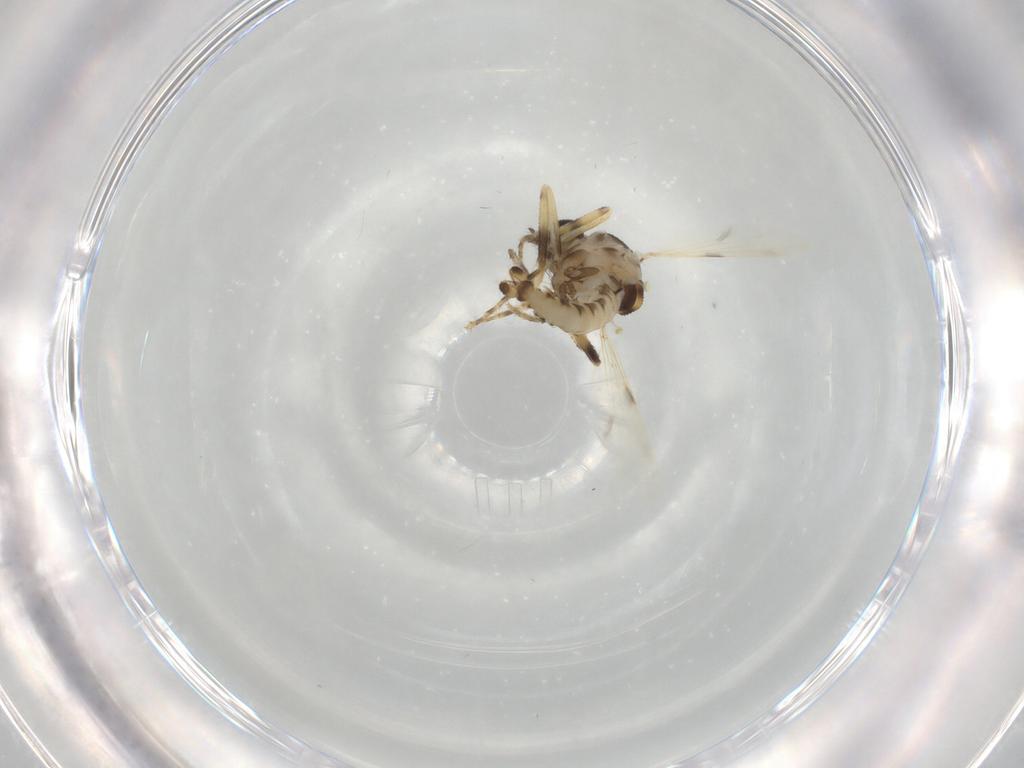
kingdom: Animalia
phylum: Arthropoda
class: Insecta
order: Diptera
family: Ceratopogonidae
